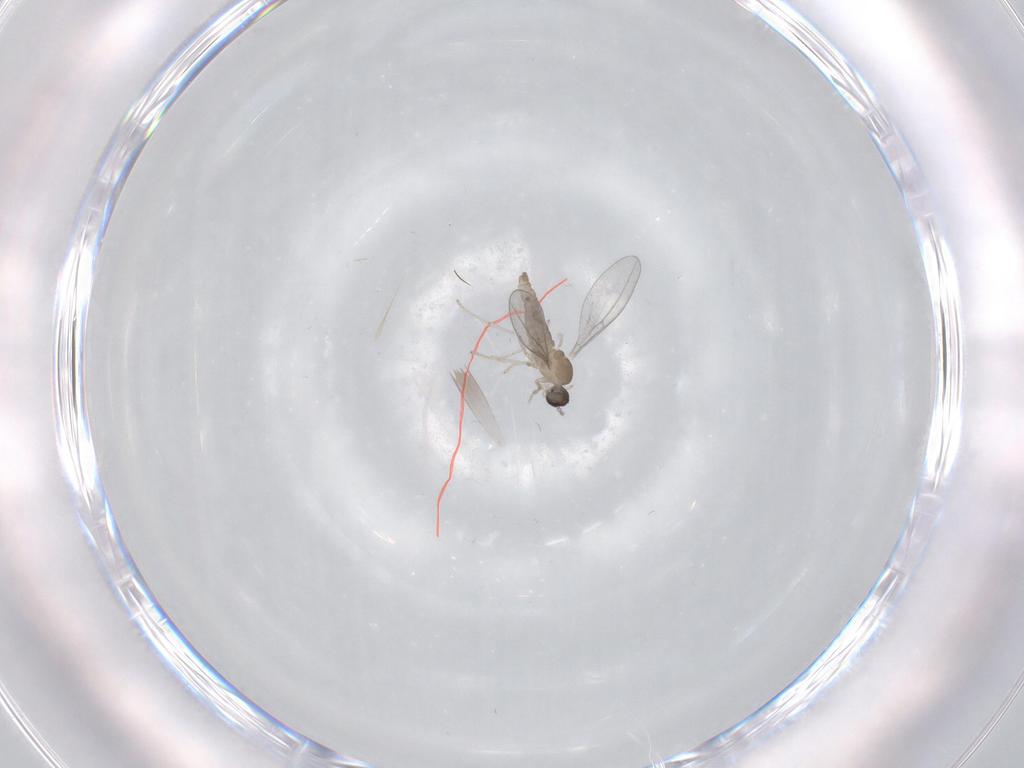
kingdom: Animalia
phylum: Arthropoda
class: Insecta
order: Diptera
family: Cecidomyiidae
